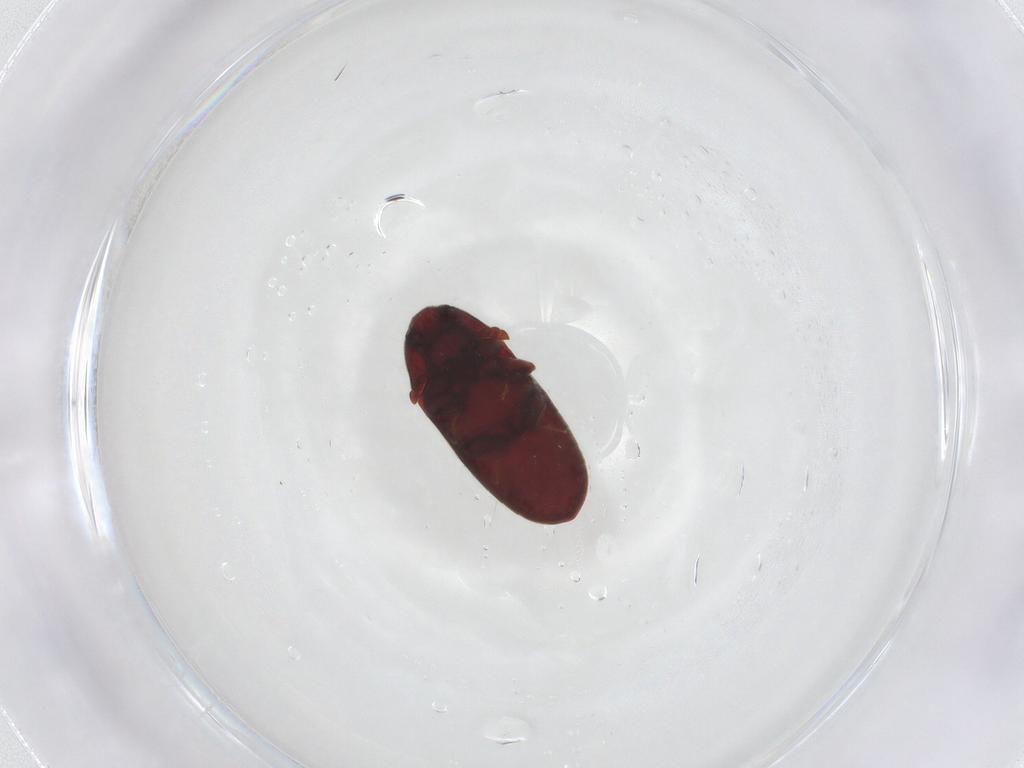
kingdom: Animalia
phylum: Arthropoda
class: Insecta
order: Coleoptera
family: Throscidae
